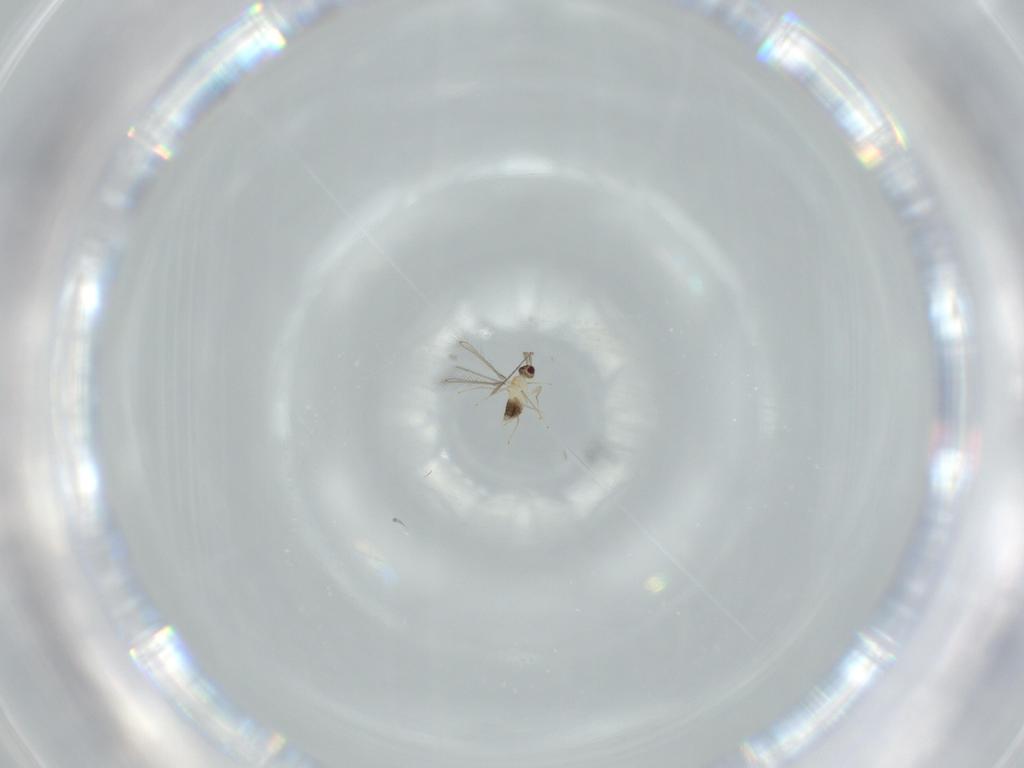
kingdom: Animalia
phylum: Arthropoda
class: Insecta
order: Hymenoptera
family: Mymaridae
